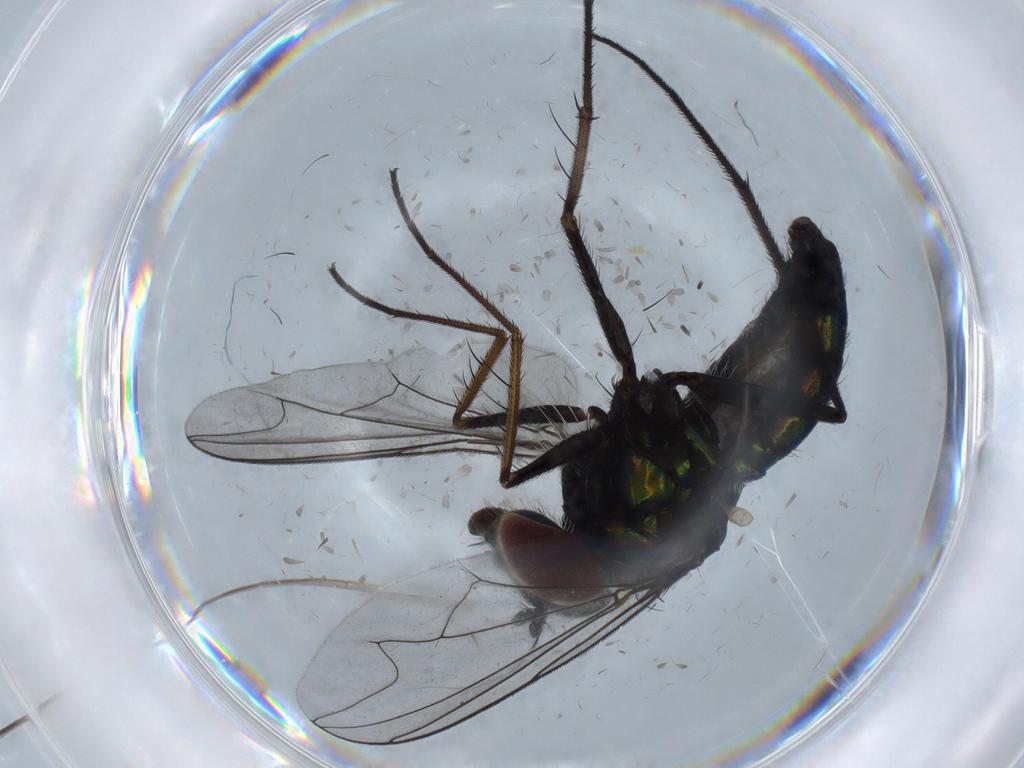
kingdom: Animalia
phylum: Arthropoda
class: Insecta
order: Diptera
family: Dolichopodidae
